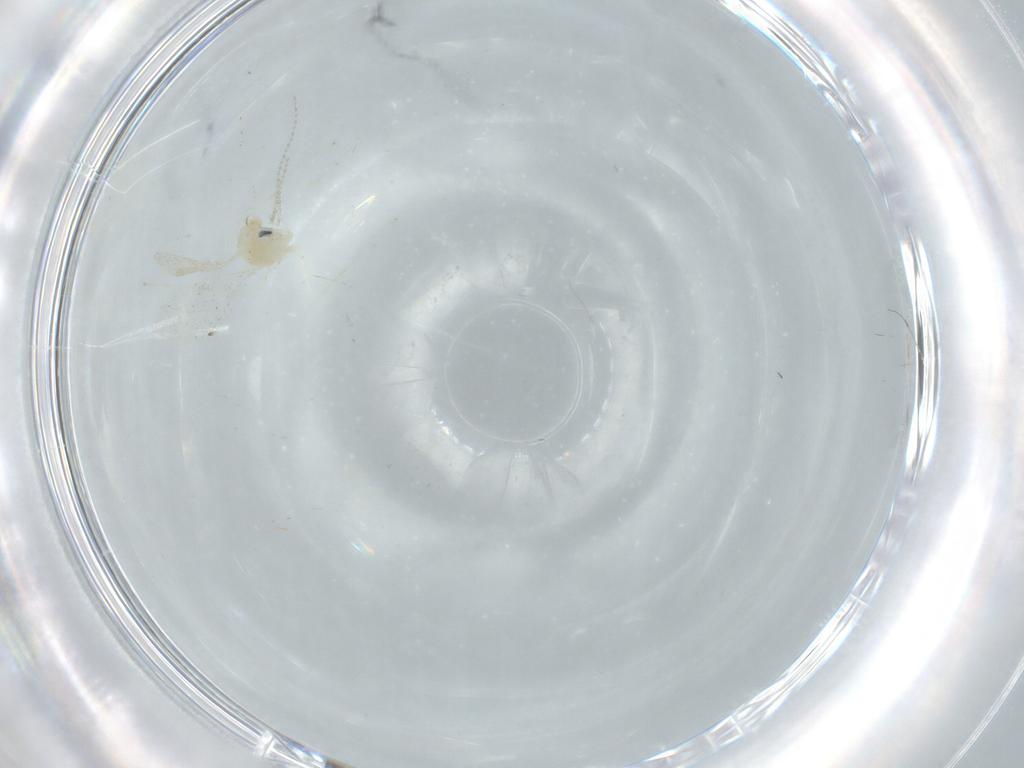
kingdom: Animalia
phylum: Arthropoda
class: Insecta
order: Diptera
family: Cecidomyiidae
